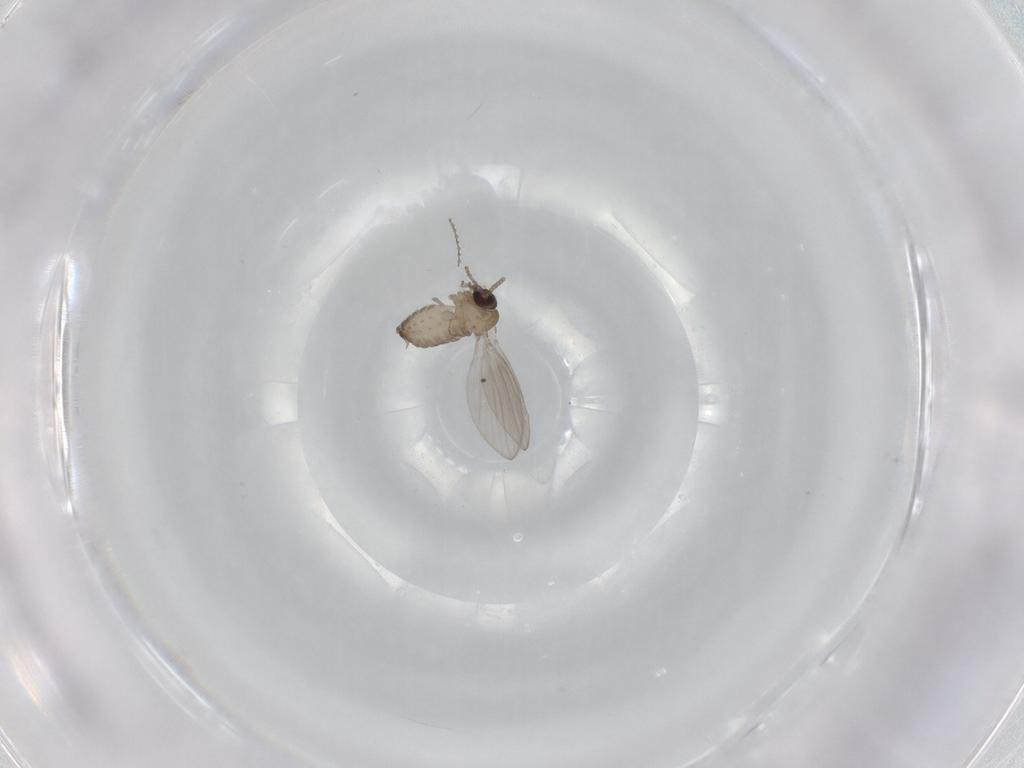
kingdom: Animalia
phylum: Arthropoda
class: Insecta
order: Diptera
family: Psychodidae
